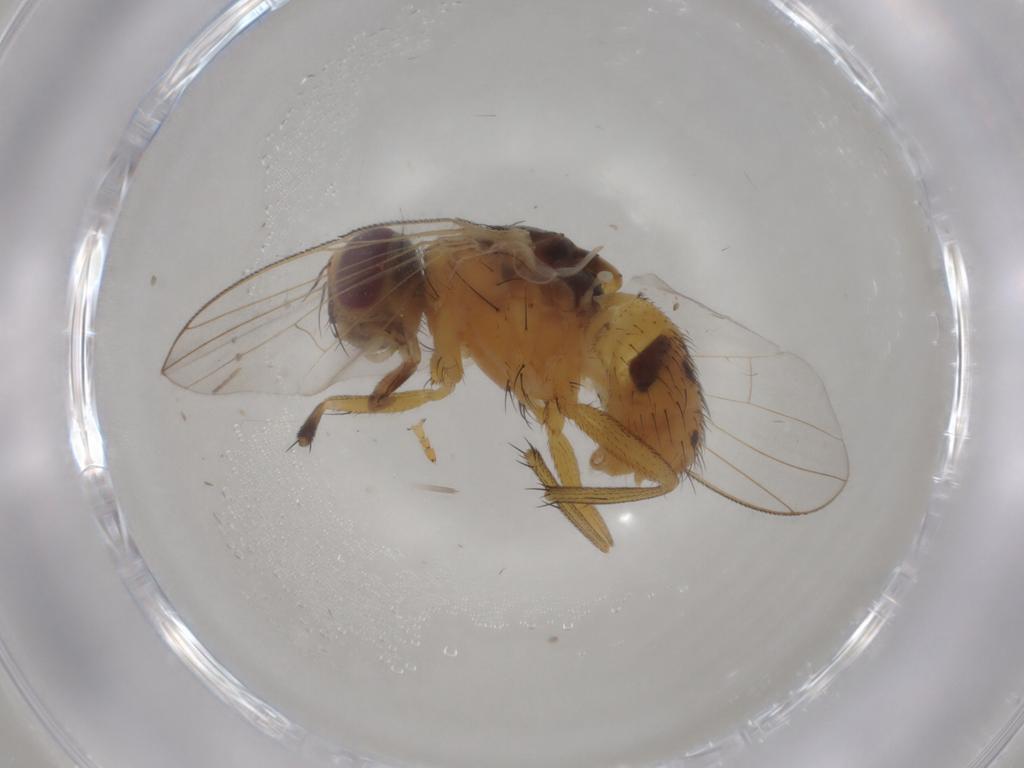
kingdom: Animalia
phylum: Arthropoda
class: Insecta
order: Diptera
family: Muscidae
